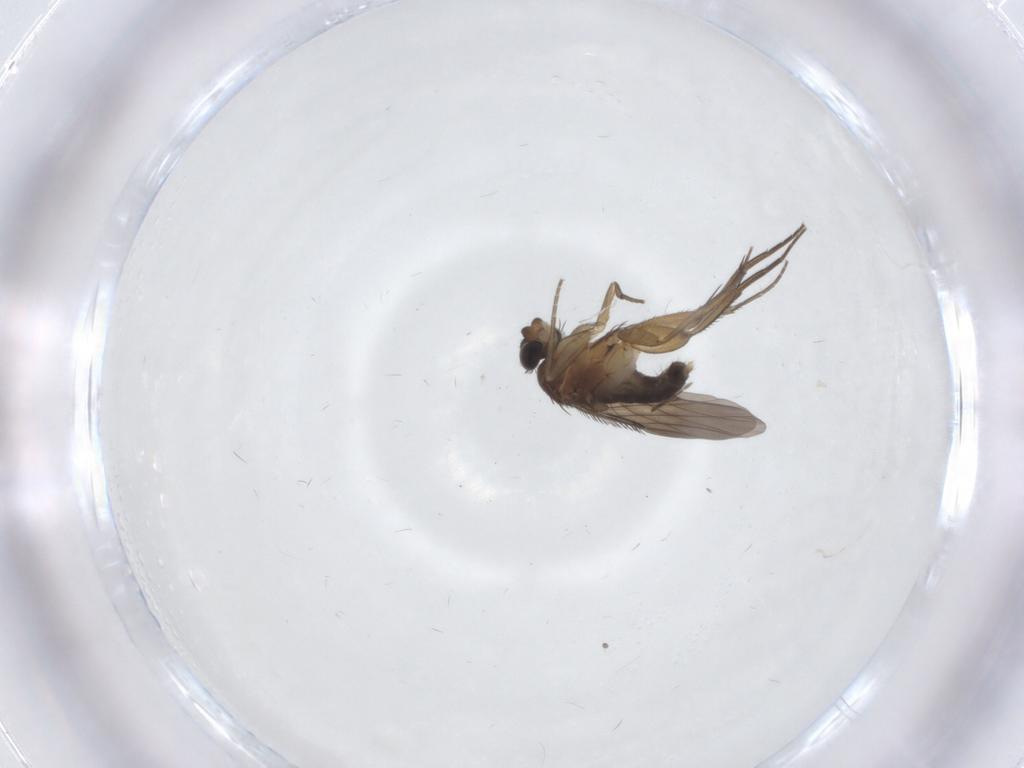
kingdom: Animalia
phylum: Arthropoda
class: Insecta
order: Diptera
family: Phoridae
